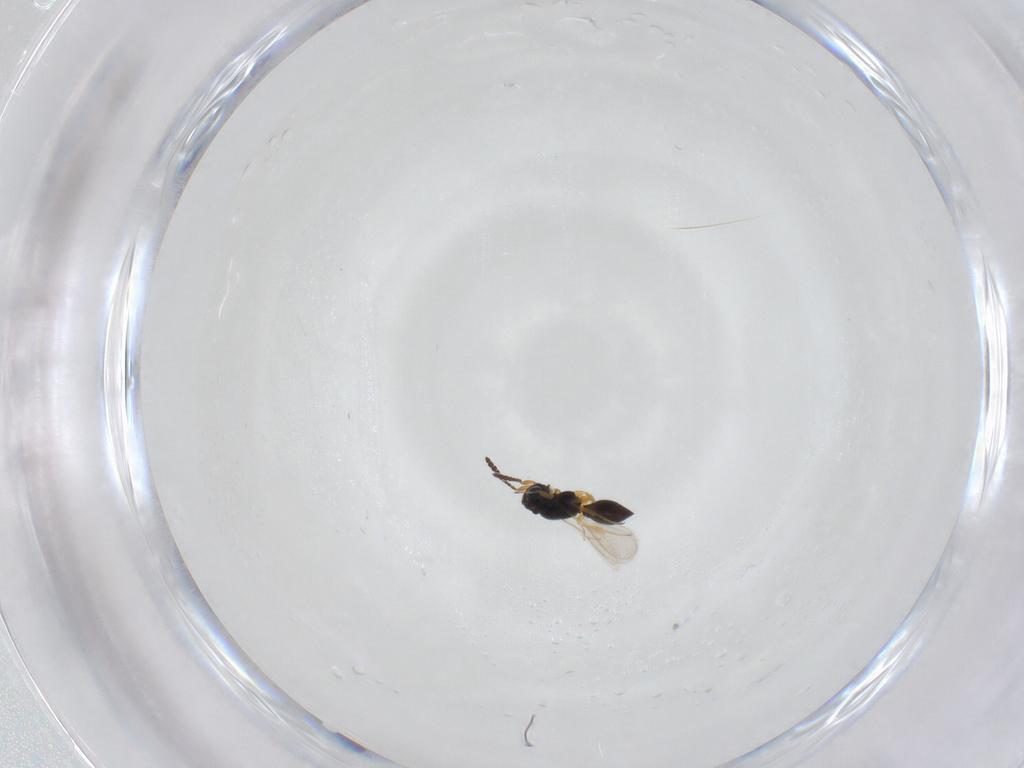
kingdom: Animalia
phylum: Arthropoda
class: Insecta
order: Hymenoptera
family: Scelionidae
